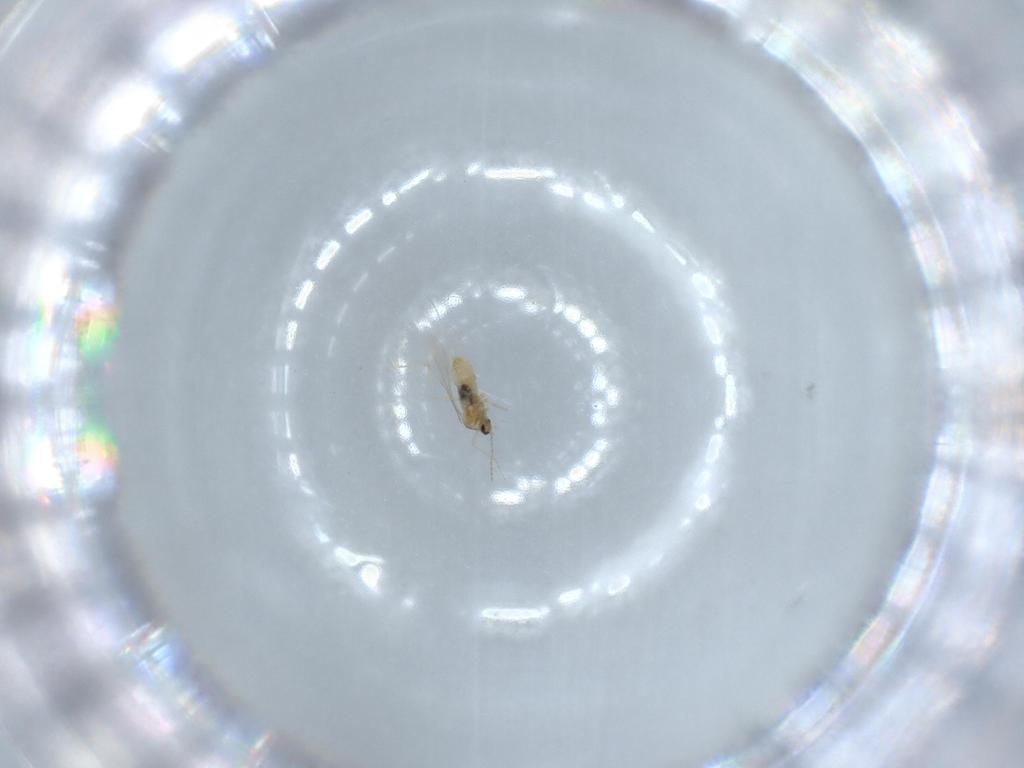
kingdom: Animalia
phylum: Arthropoda
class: Insecta
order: Diptera
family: Cecidomyiidae
